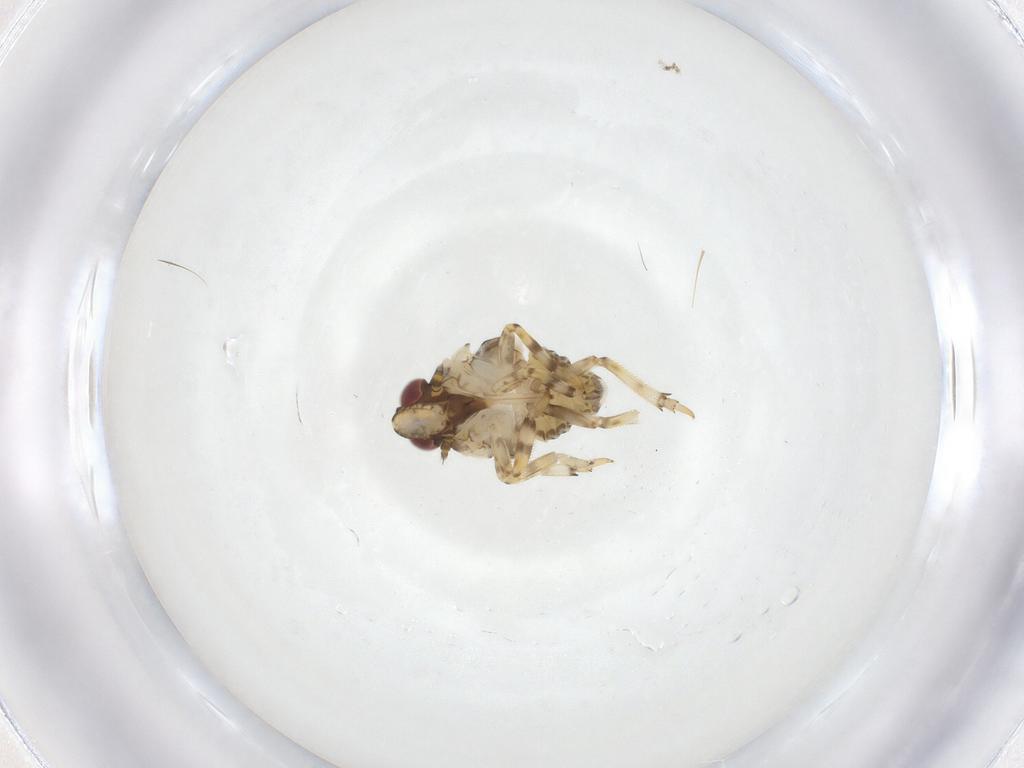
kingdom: Animalia
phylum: Arthropoda
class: Insecta
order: Hemiptera
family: Issidae
